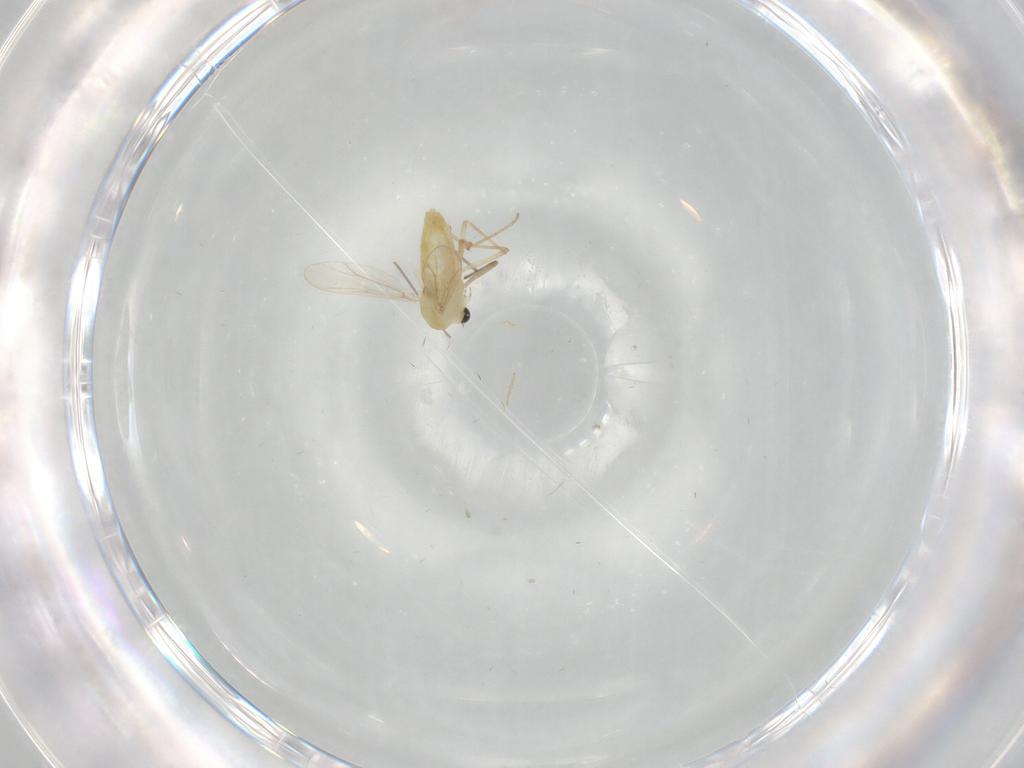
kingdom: Animalia
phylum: Arthropoda
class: Insecta
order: Diptera
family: Chironomidae
